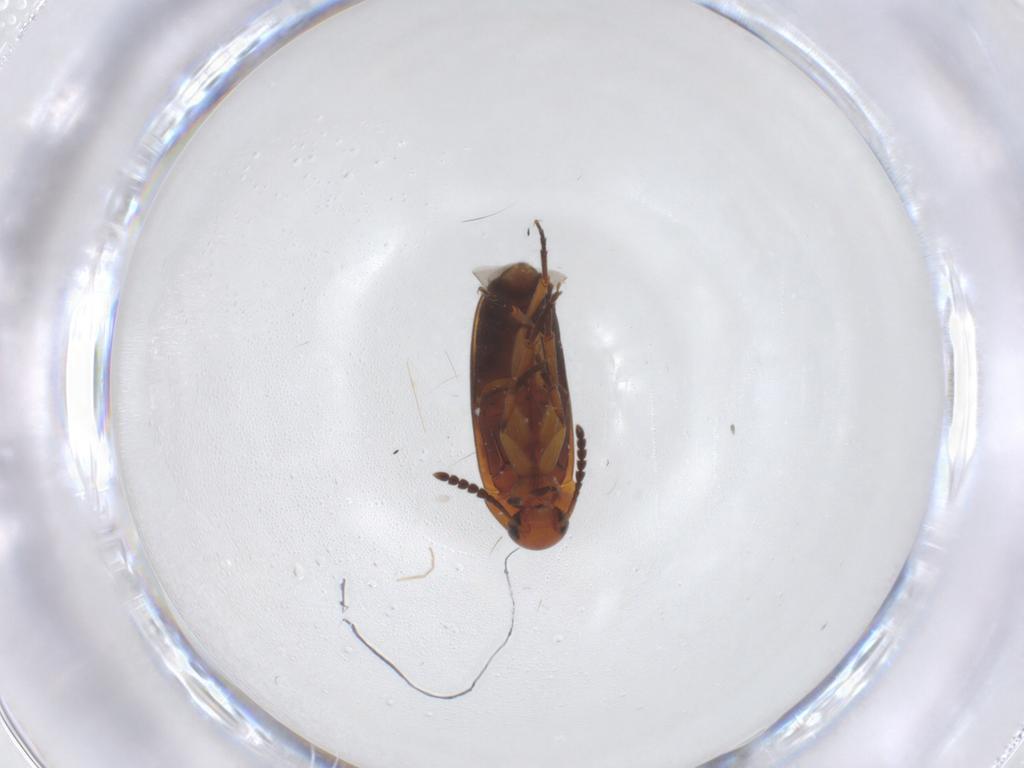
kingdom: Animalia
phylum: Arthropoda
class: Insecta
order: Coleoptera
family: Scraptiidae
